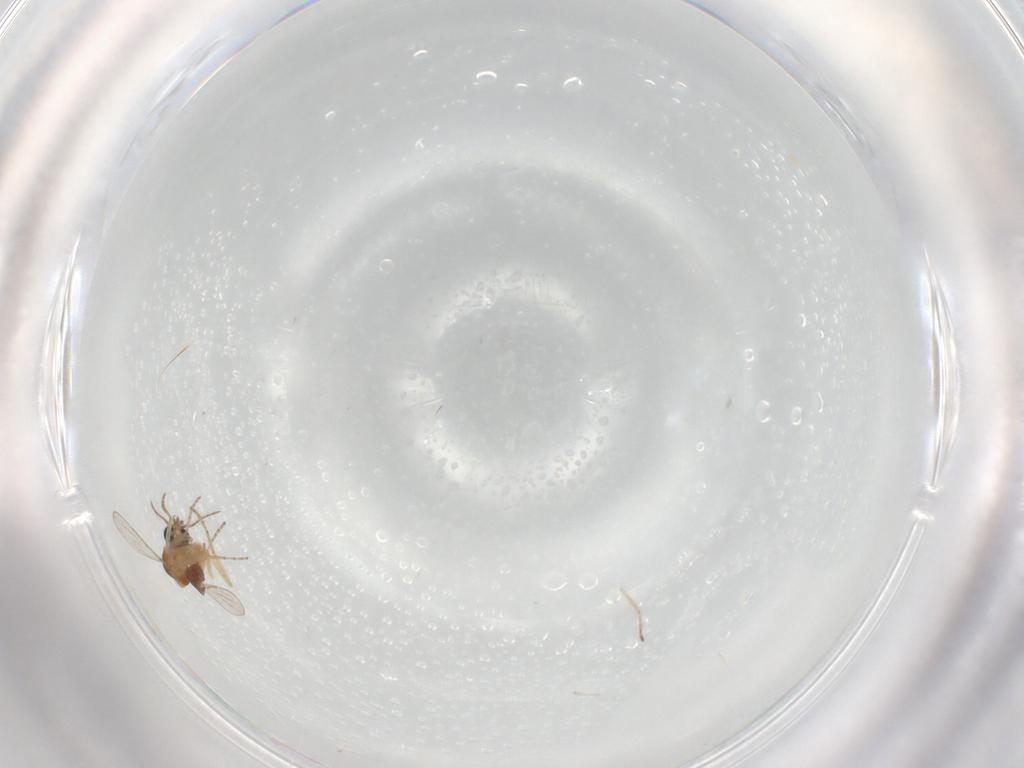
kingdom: Animalia
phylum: Arthropoda
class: Insecta
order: Diptera
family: Ceratopogonidae
